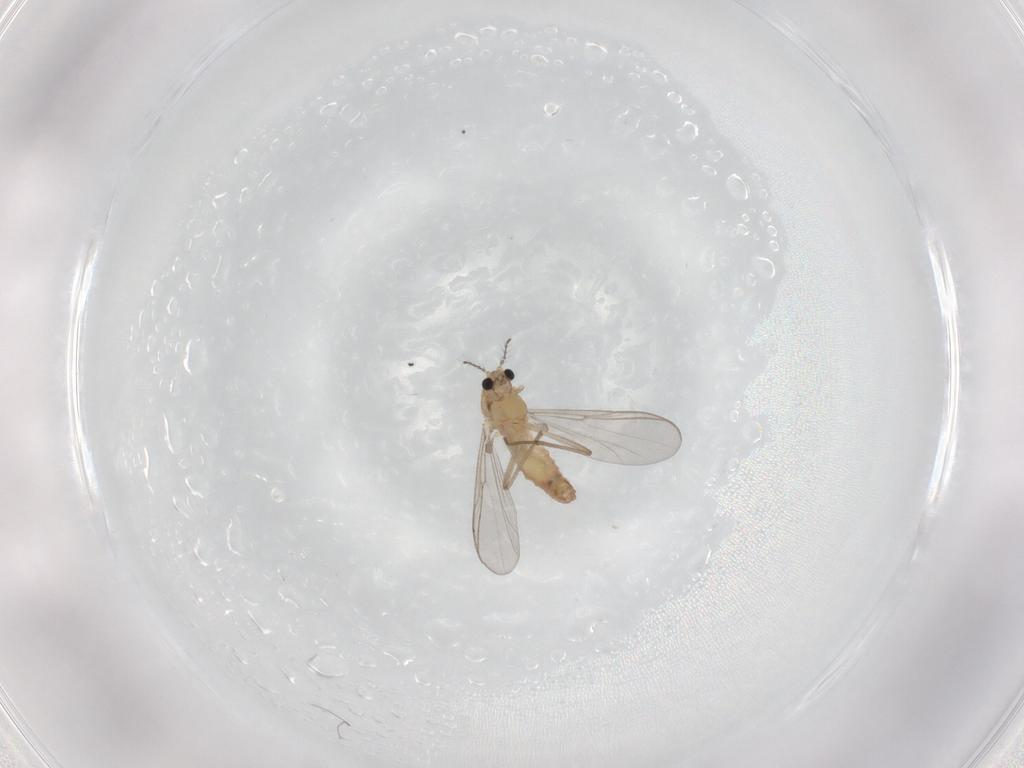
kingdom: Animalia
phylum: Arthropoda
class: Insecta
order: Diptera
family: Chironomidae
